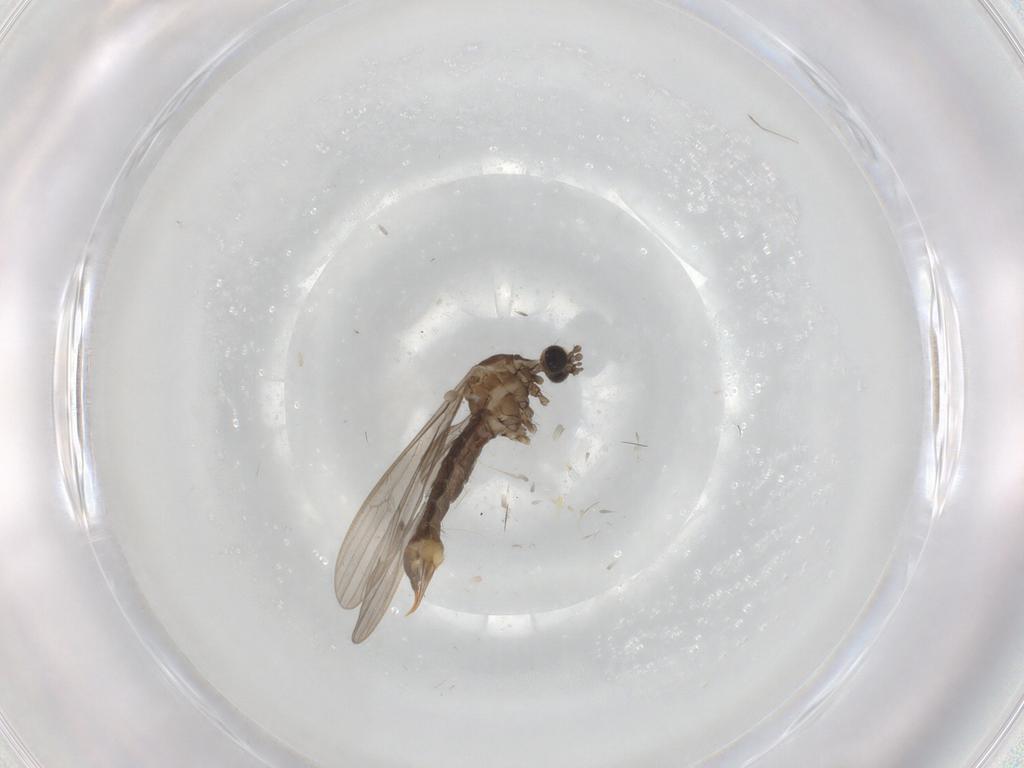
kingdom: Animalia
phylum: Arthropoda
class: Insecta
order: Diptera
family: Limoniidae
